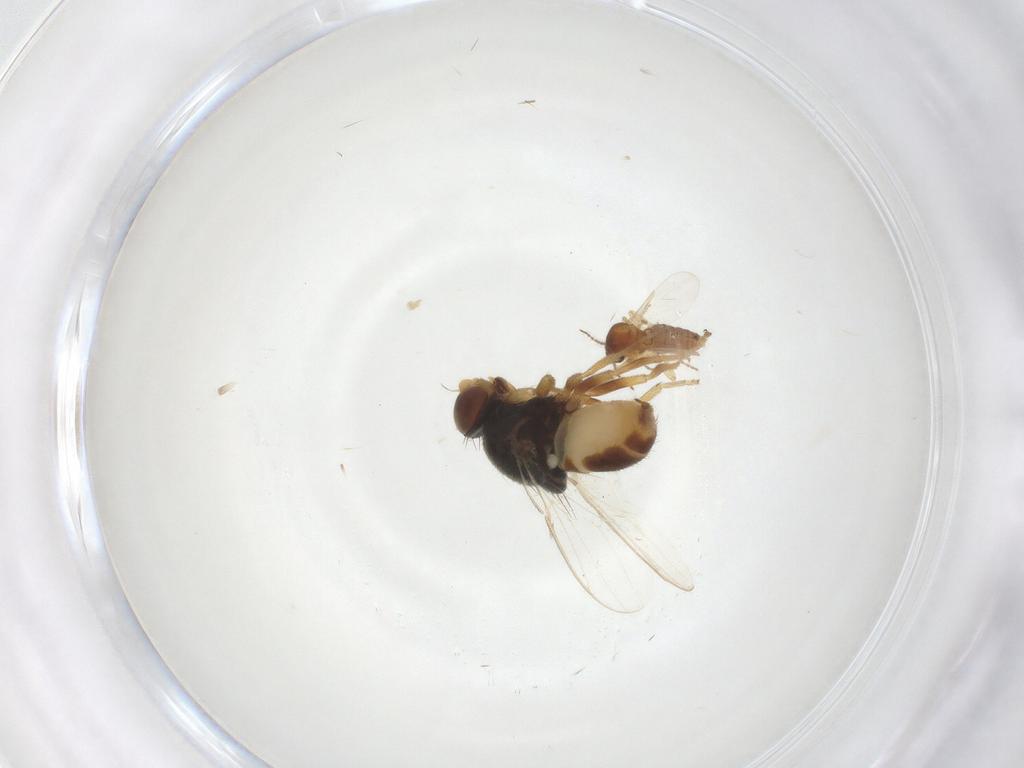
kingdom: Animalia
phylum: Arthropoda
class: Insecta
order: Diptera
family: Chloropidae
